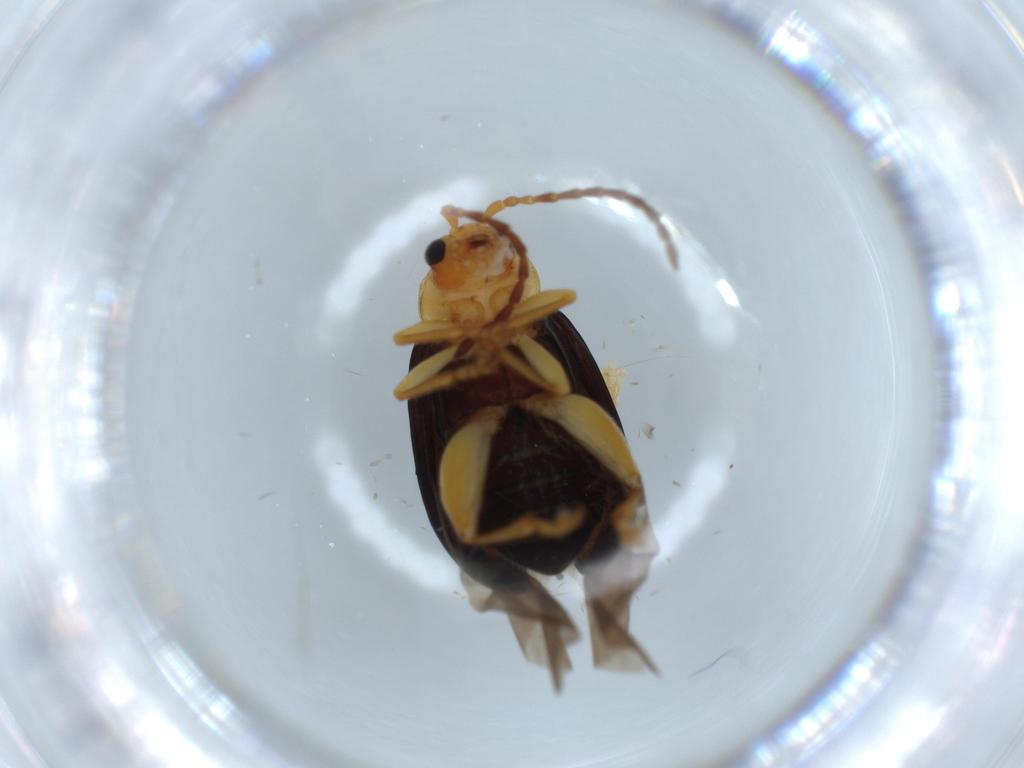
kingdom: Animalia
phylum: Arthropoda
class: Insecta
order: Coleoptera
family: Chrysomelidae
